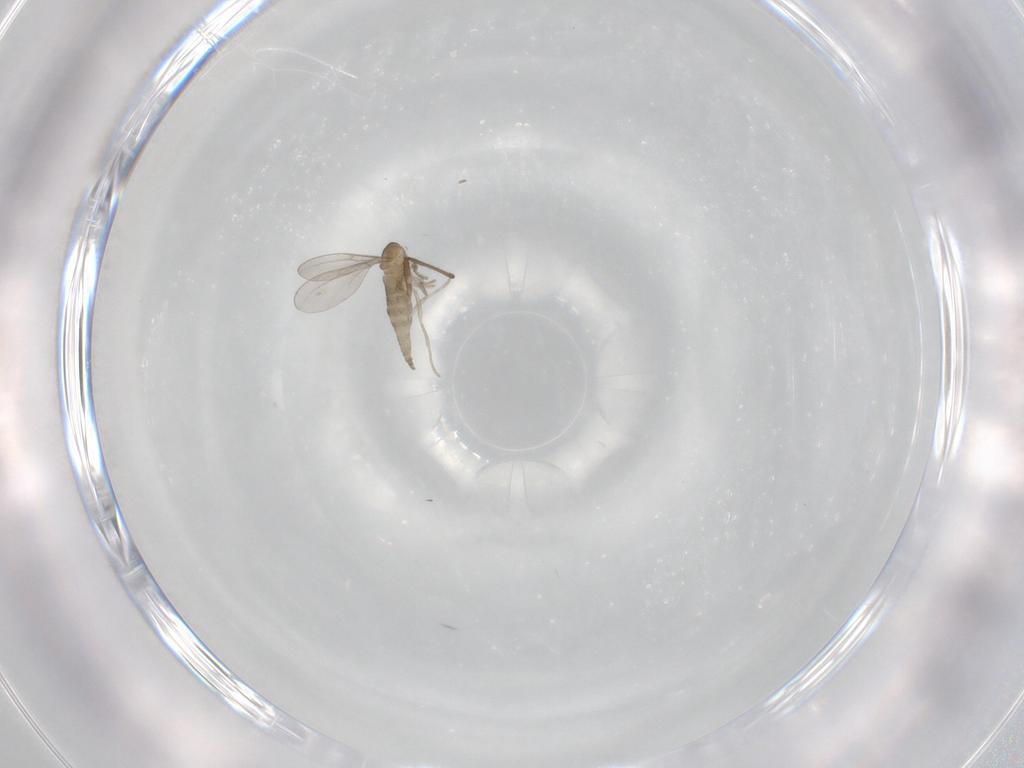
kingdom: Animalia
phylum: Arthropoda
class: Insecta
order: Diptera
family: Cecidomyiidae
